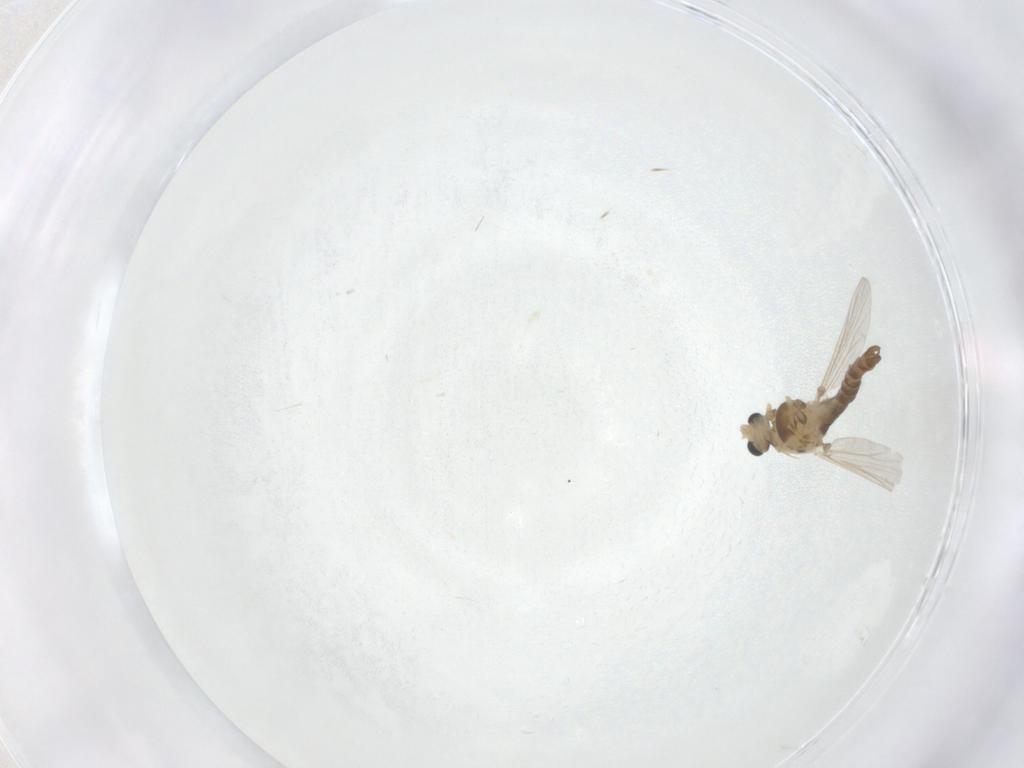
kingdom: Animalia
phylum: Arthropoda
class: Insecta
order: Diptera
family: Chironomidae
